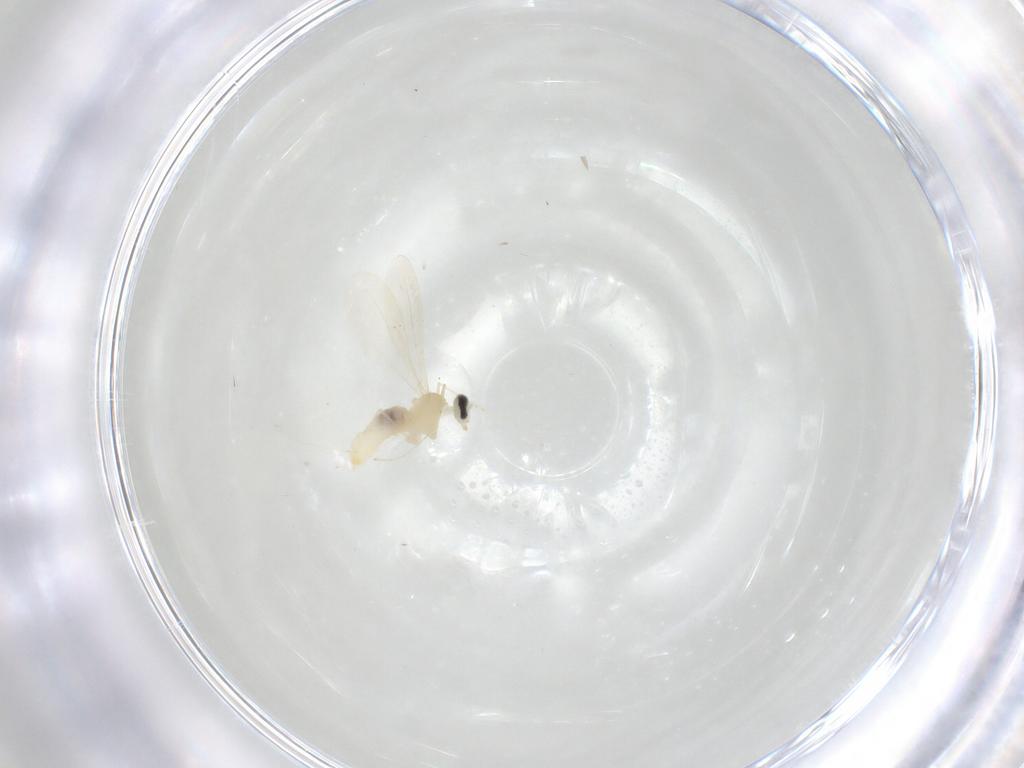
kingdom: Animalia
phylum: Arthropoda
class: Insecta
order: Diptera
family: Cecidomyiidae
